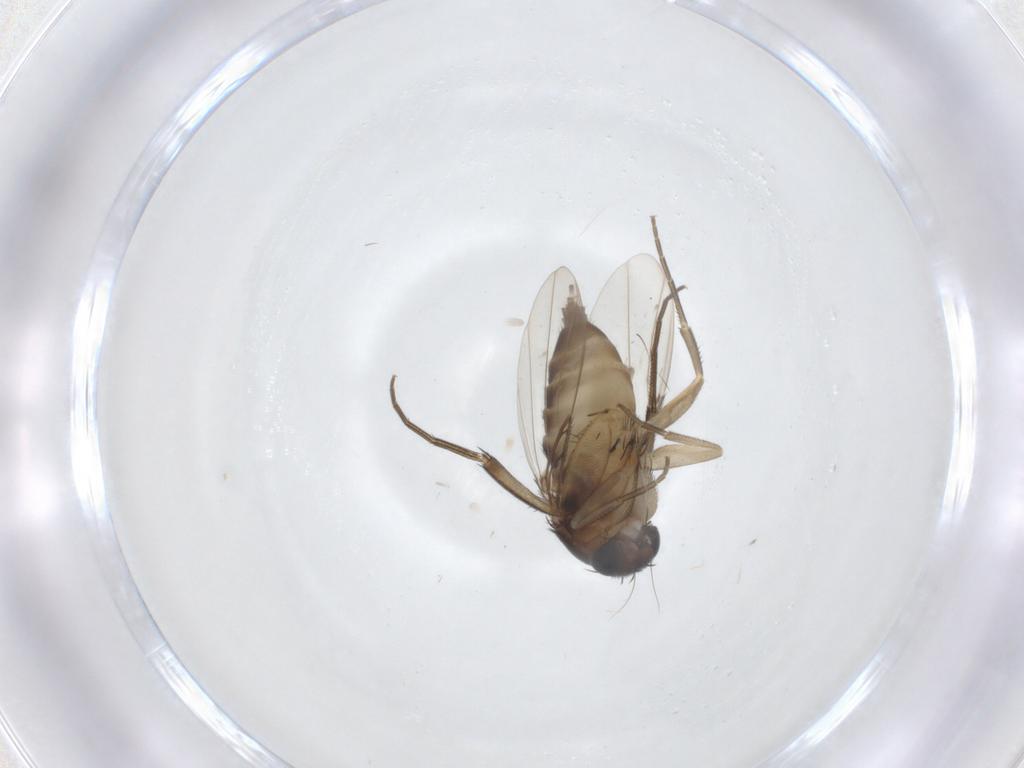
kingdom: Animalia
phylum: Arthropoda
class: Insecta
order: Diptera
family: Phoridae
